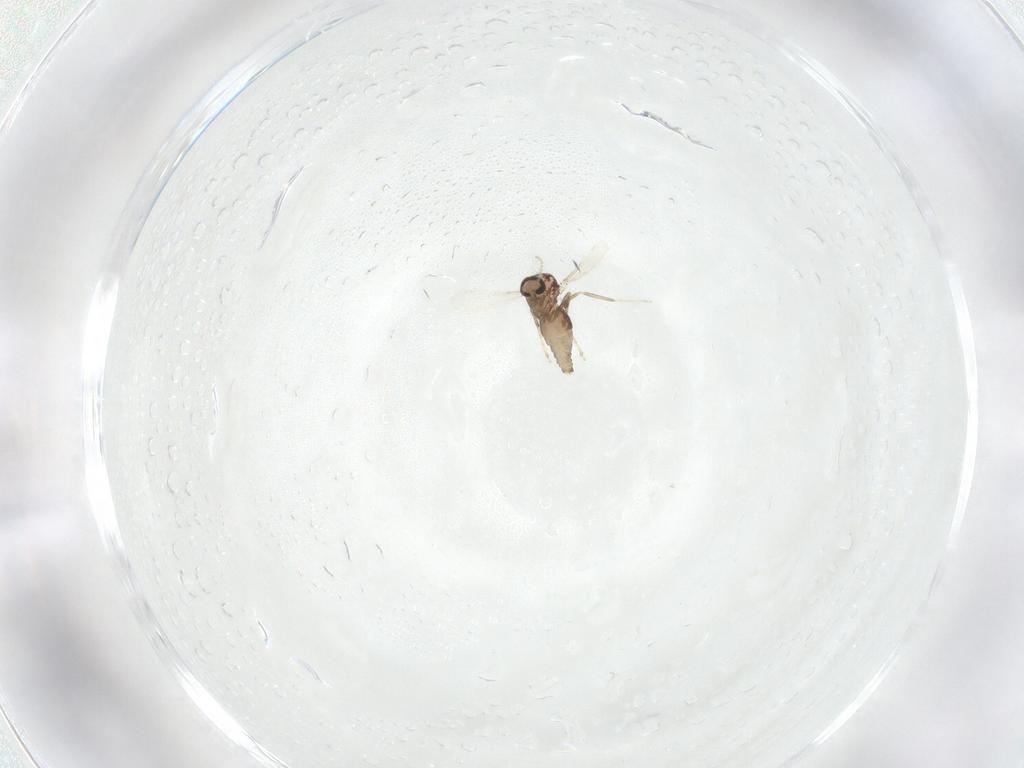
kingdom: Animalia
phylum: Arthropoda
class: Insecta
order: Diptera
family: Ceratopogonidae
